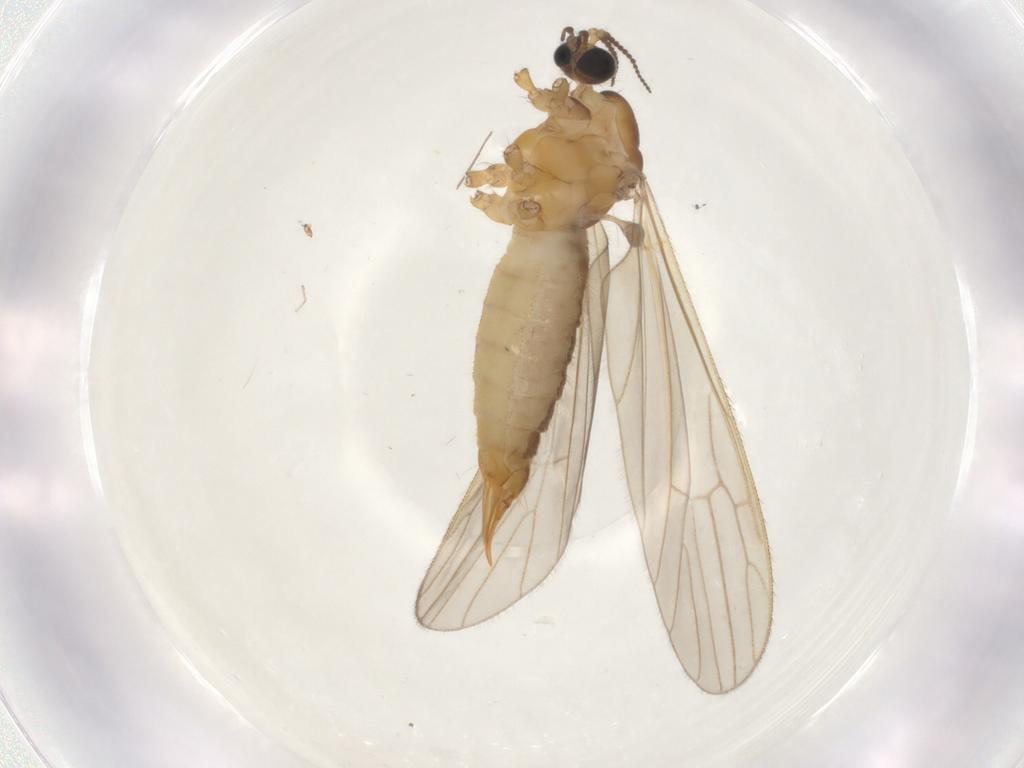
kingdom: Animalia
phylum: Arthropoda
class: Insecta
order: Diptera
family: Limoniidae
